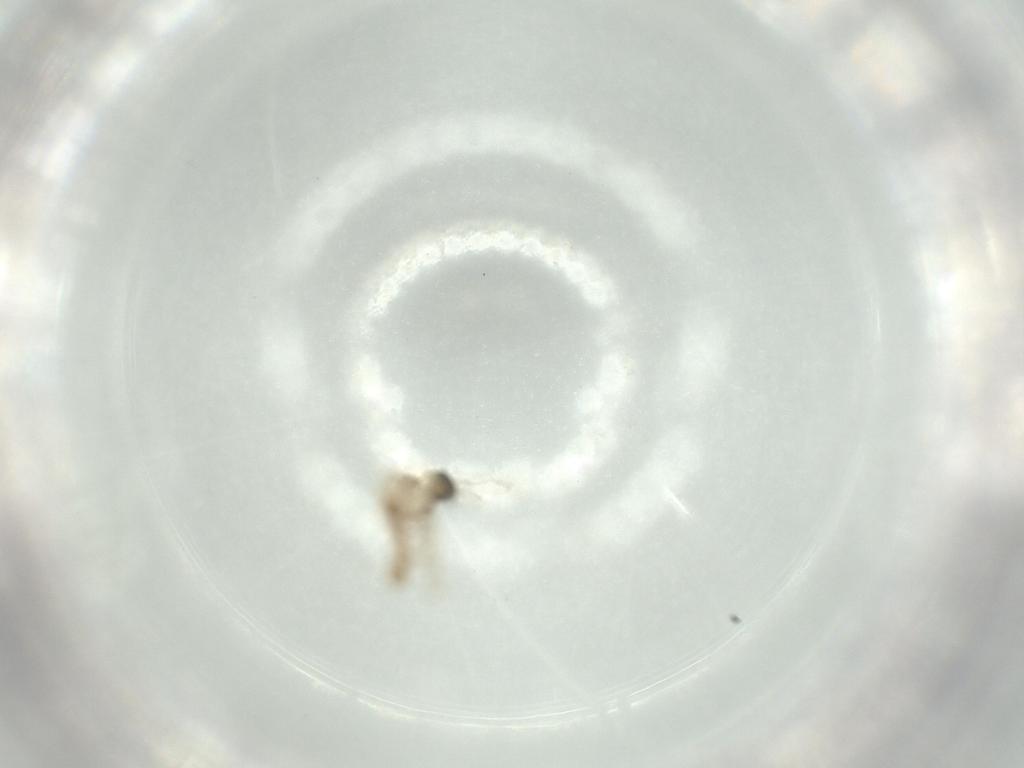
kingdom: Animalia
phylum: Arthropoda
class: Insecta
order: Diptera
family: Cecidomyiidae
